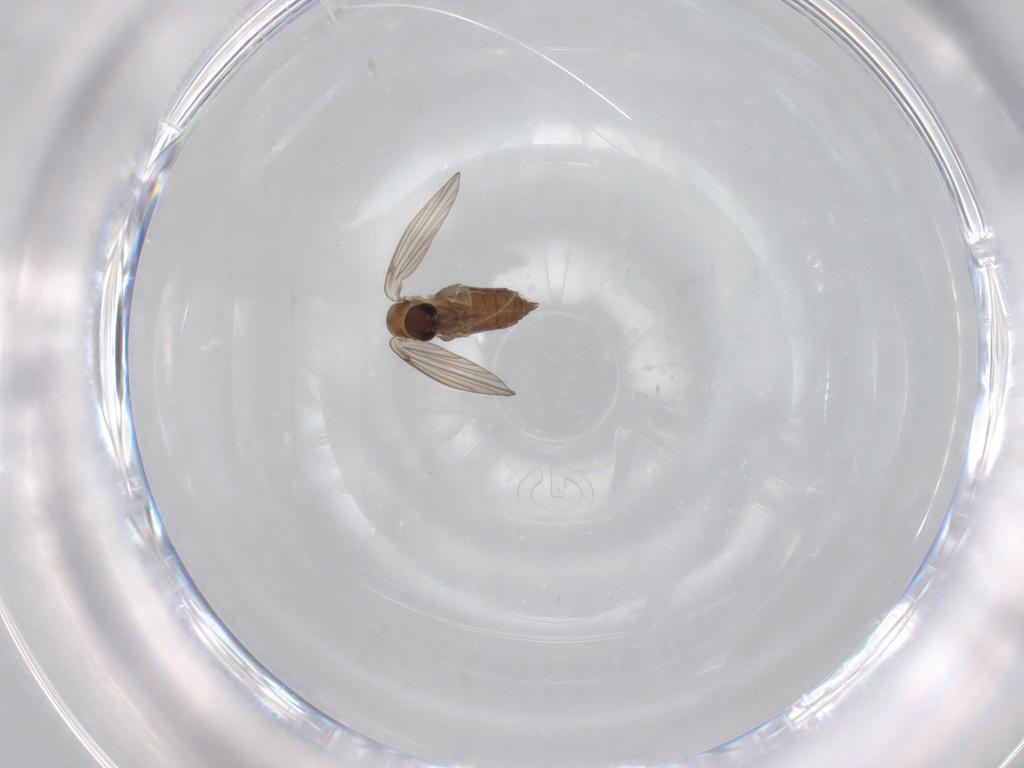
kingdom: Animalia
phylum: Arthropoda
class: Insecta
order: Diptera
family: Psychodidae
